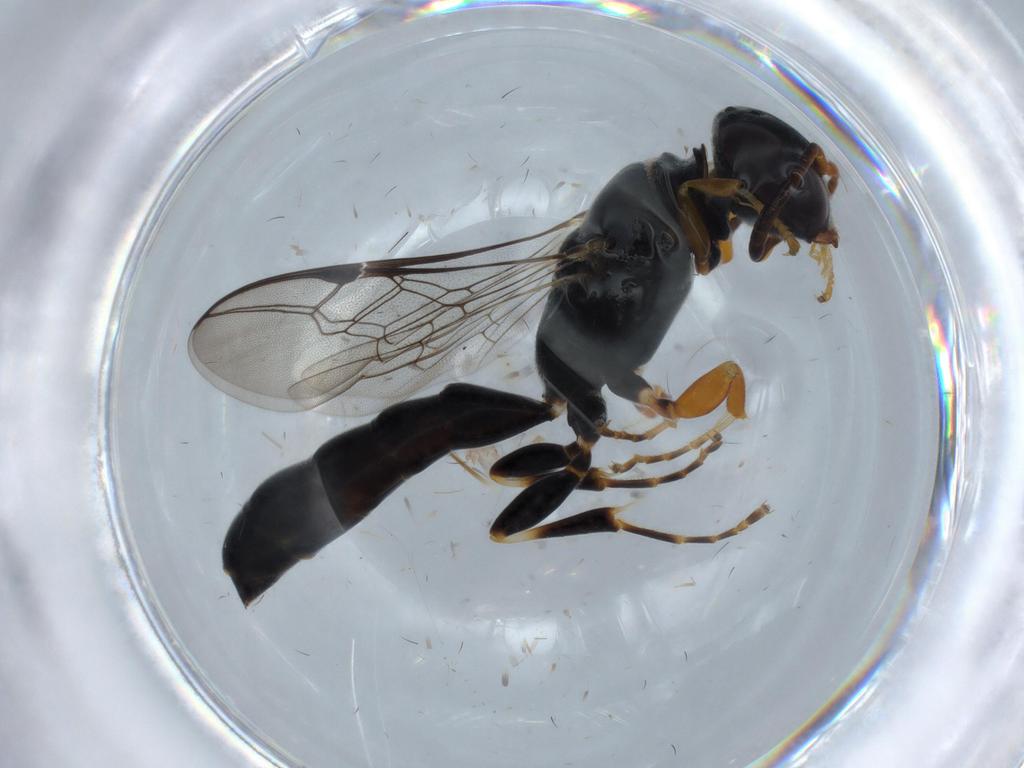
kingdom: Animalia
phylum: Arthropoda
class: Insecta
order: Hymenoptera
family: Crabronidae
